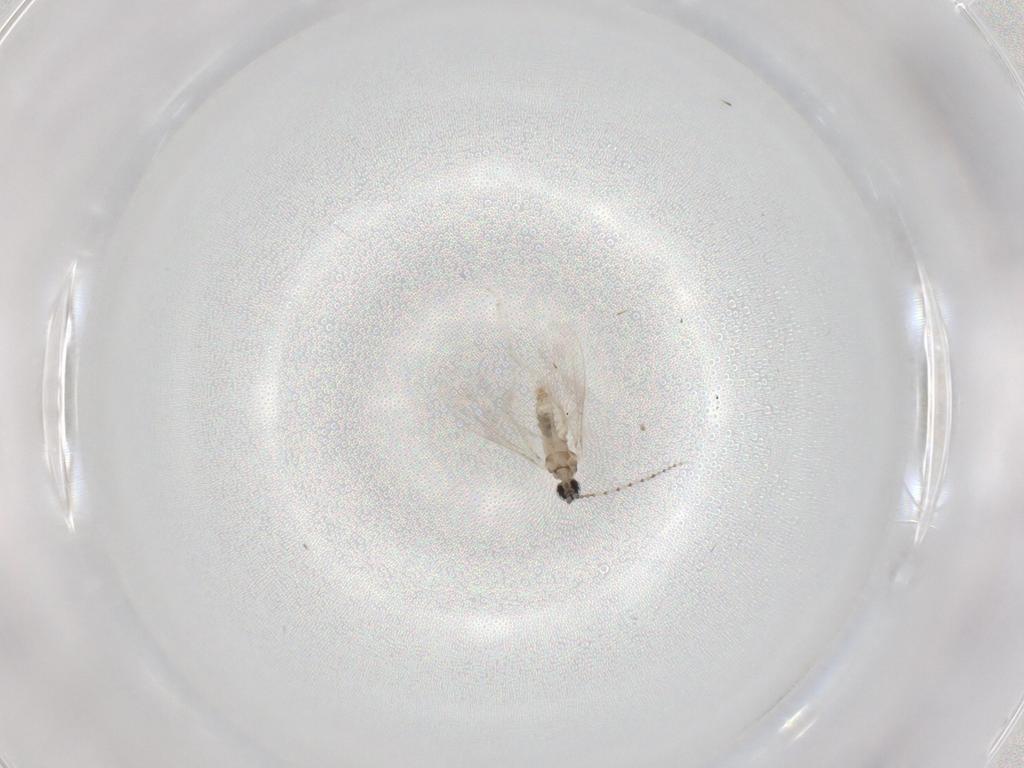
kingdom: Animalia
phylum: Arthropoda
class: Insecta
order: Diptera
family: Cecidomyiidae
